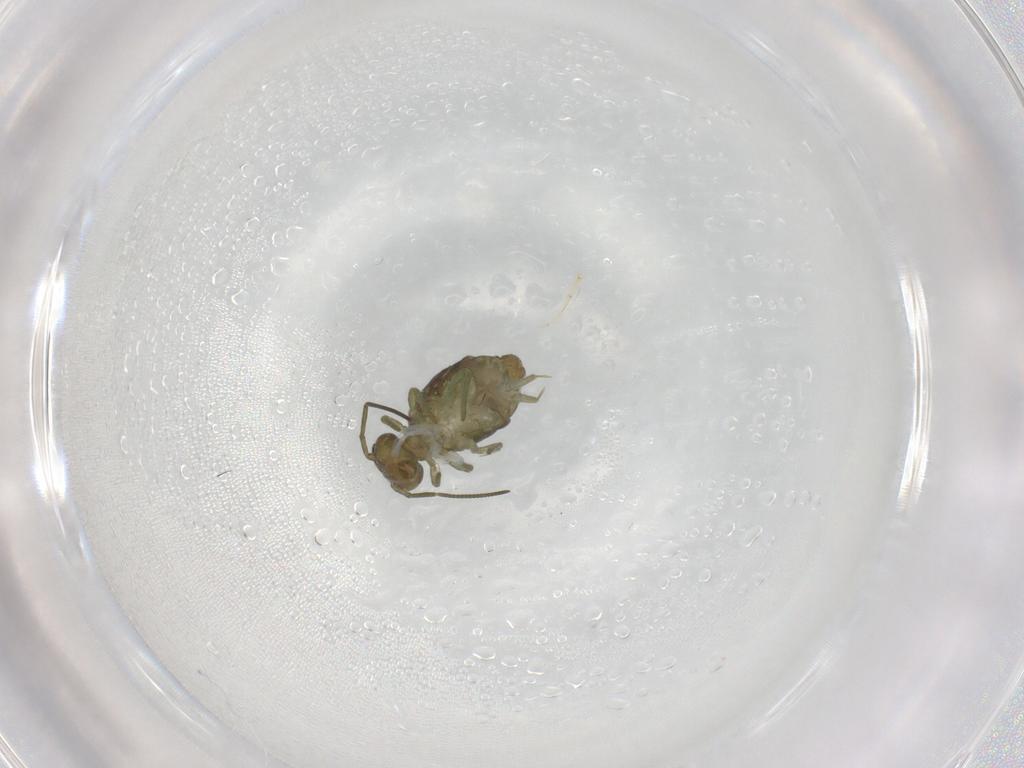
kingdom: Animalia
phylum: Arthropoda
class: Collembola
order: Symphypleona
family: Sminthuridae
